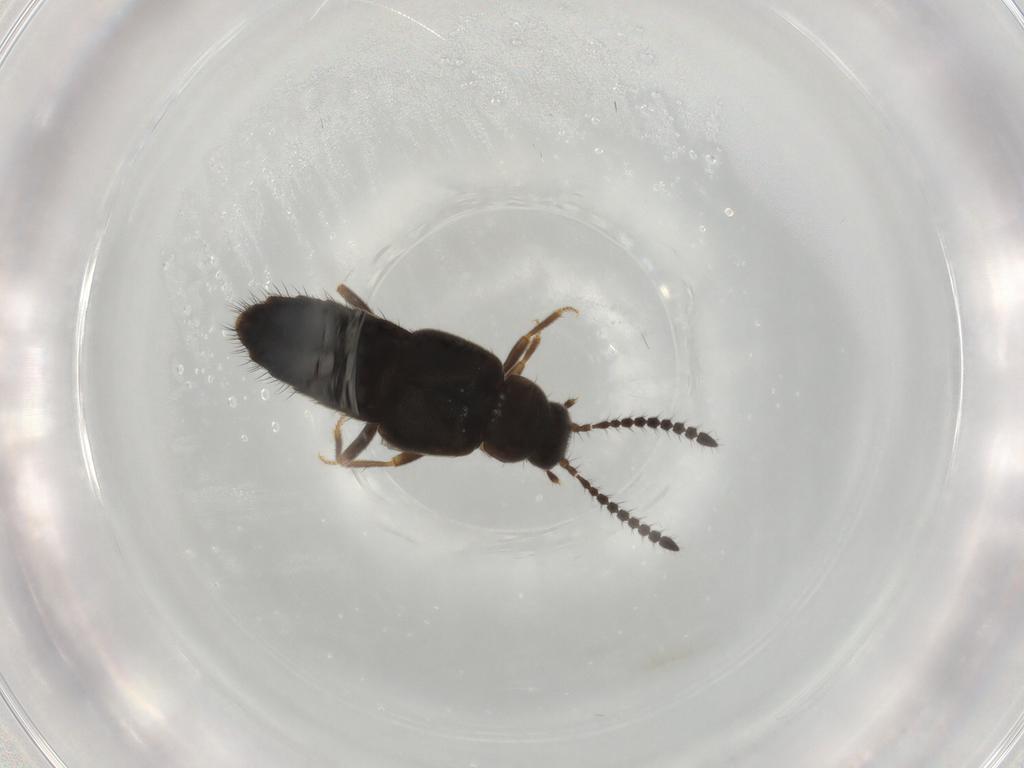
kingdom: Animalia
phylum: Arthropoda
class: Insecta
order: Coleoptera
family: Staphylinidae
